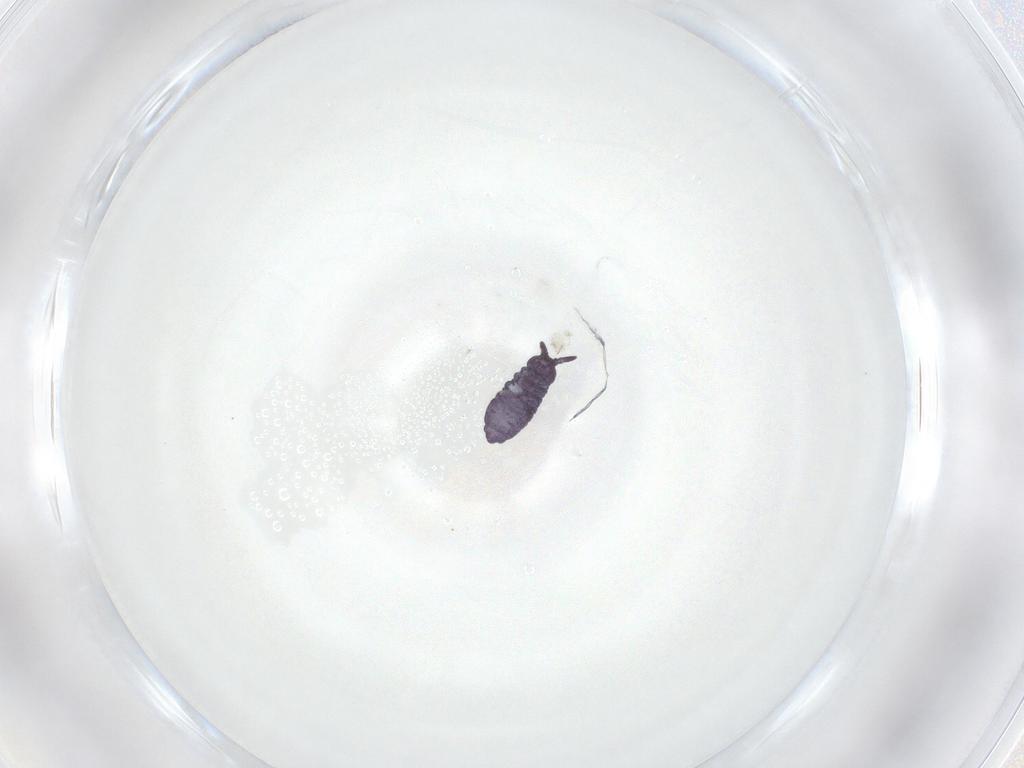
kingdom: Animalia
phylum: Arthropoda
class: Collembola
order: Poduromorpha
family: Brachystomellidae
